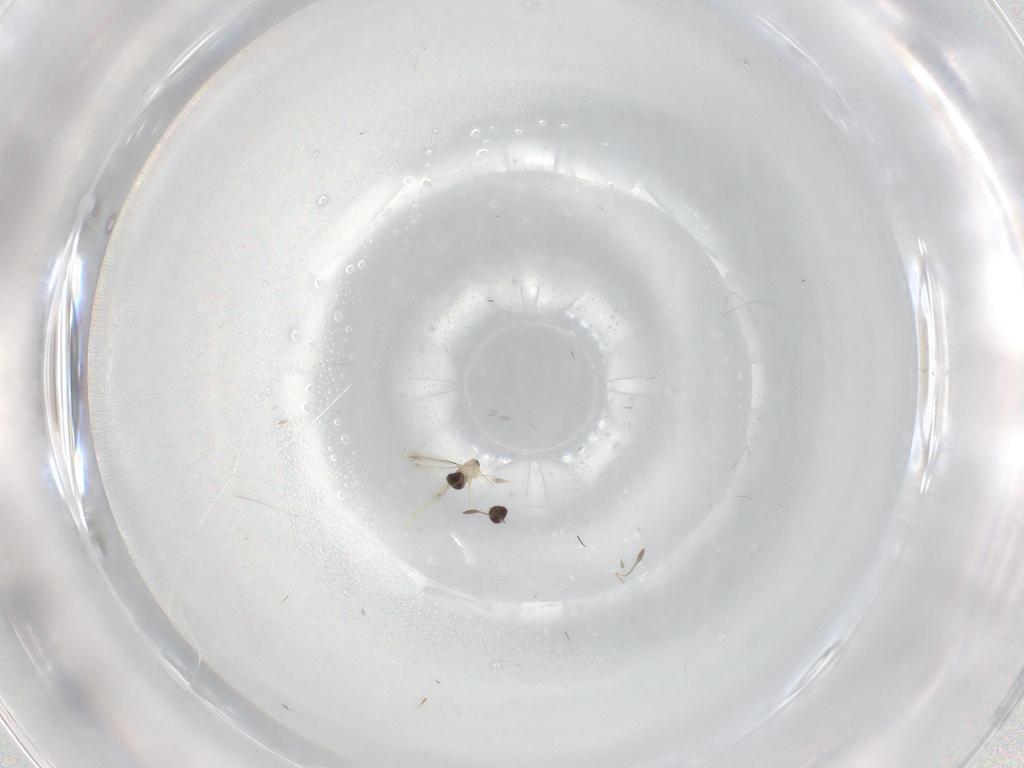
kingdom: Animalia
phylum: Arthropoda
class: Insecta
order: Hymenoptera
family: Mymaridae
